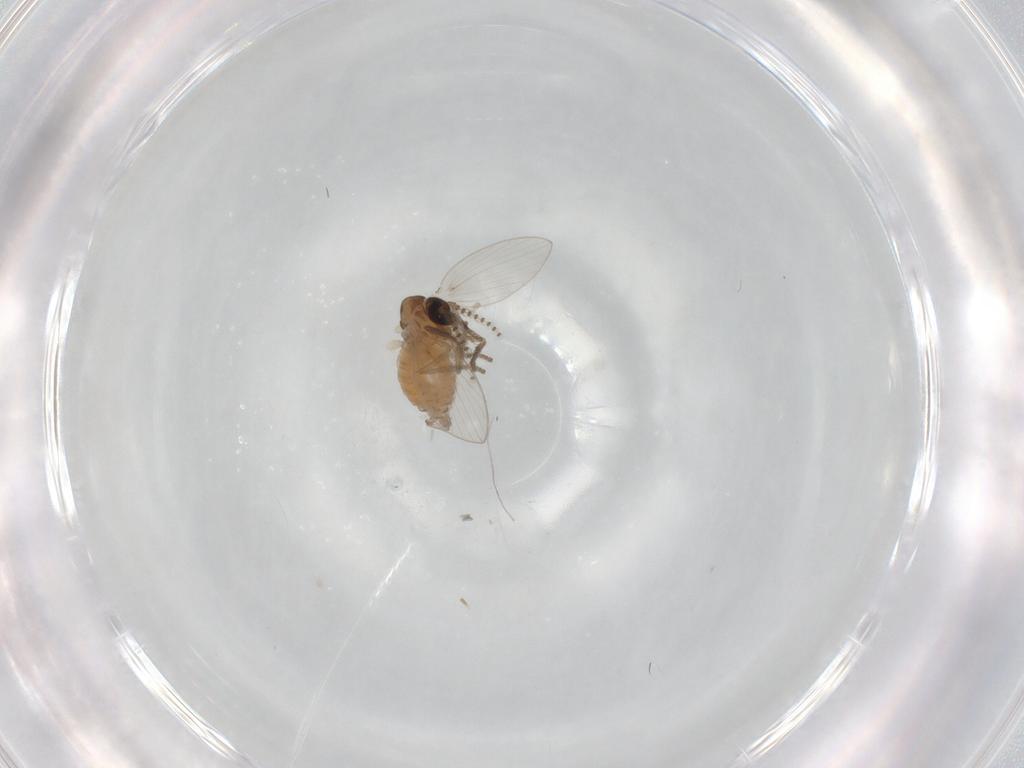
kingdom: Animalia
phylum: Arthropoda
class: Insecta
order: Diptera
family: Psychodidae
